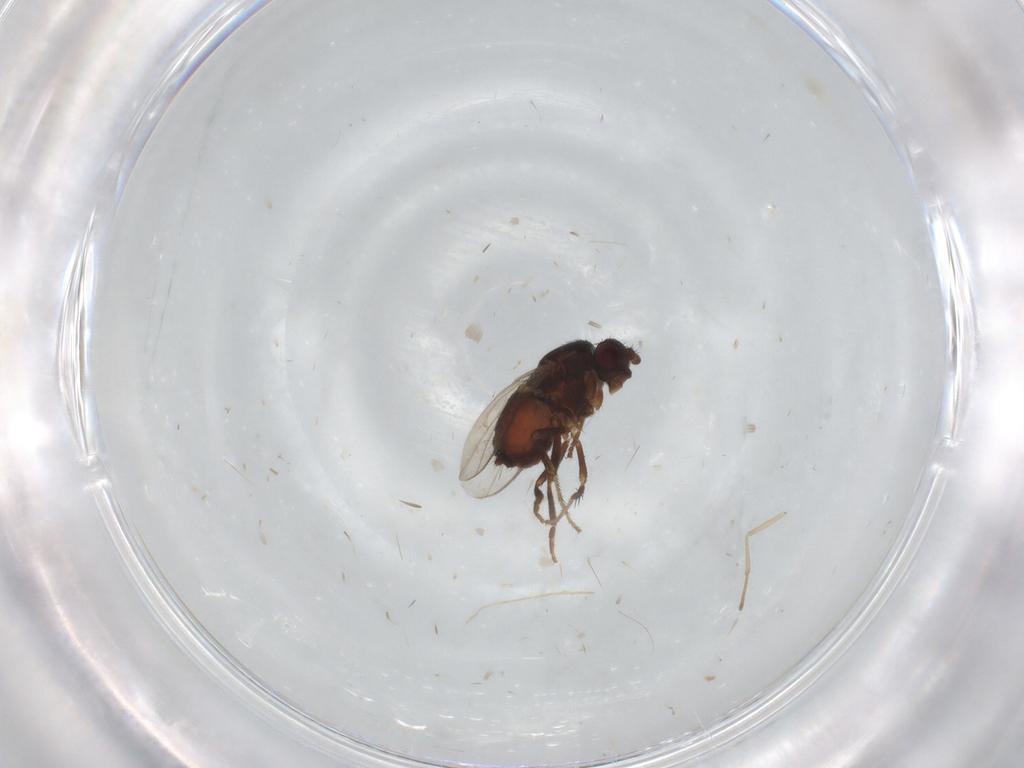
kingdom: Animalia
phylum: Arthropoda
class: Insecta
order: Diptera
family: Sphaeroceridae
